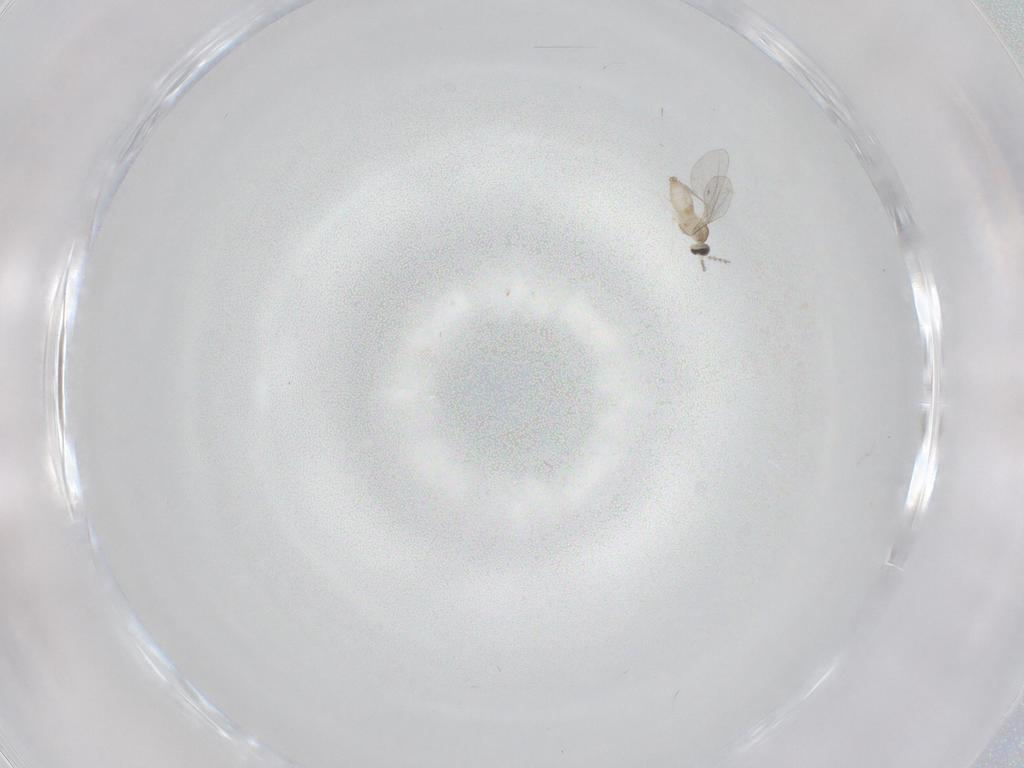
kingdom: Animalia
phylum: Arthropoda
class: Insecta
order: Diptera
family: Cecidomyiidae
